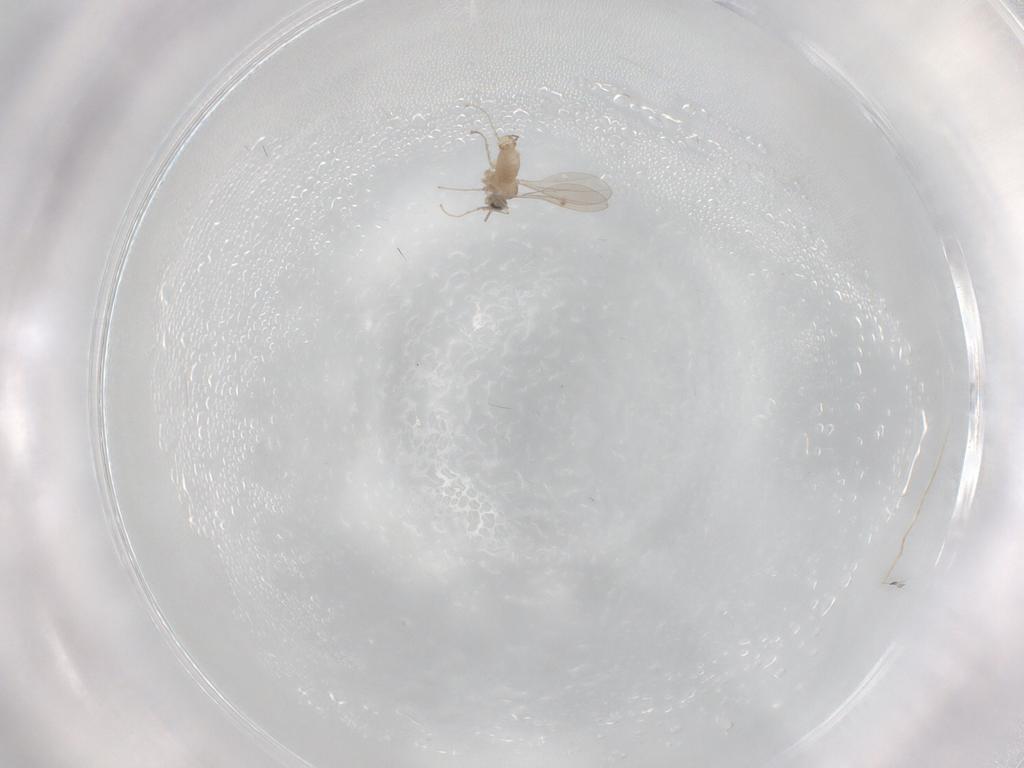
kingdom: Animalia
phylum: Arthropoda
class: Insecta
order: Diptera
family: Cecidomyiidae
